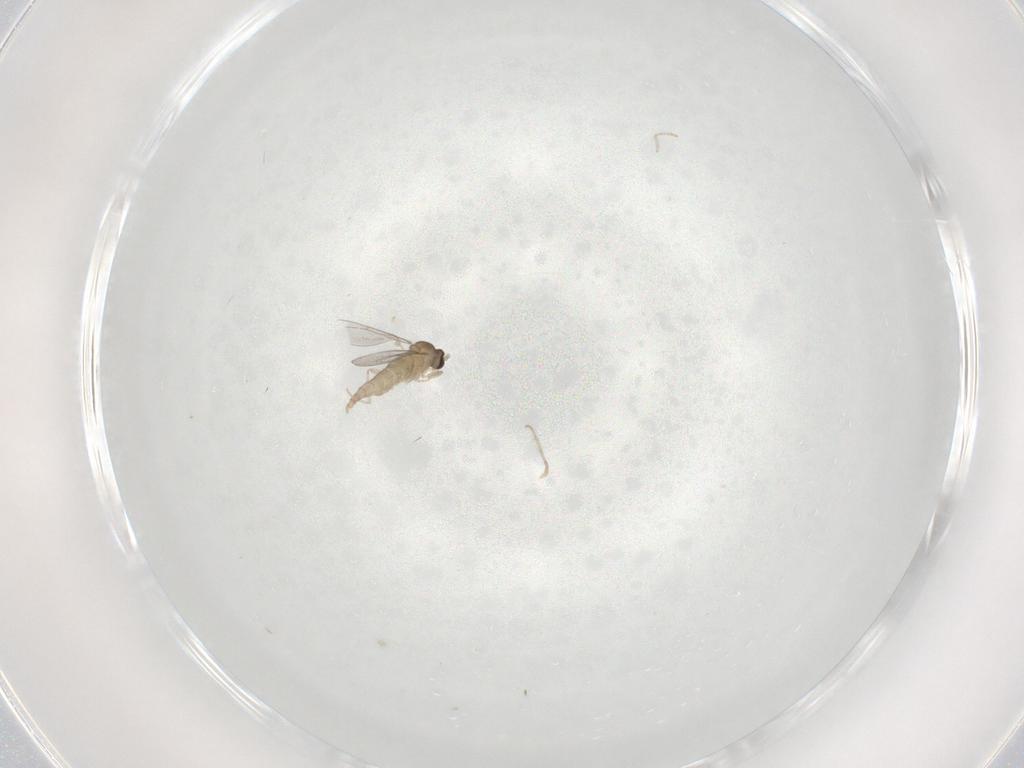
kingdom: Animalia
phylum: Arthropoda
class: Insecta
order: Diptera
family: Cecidomyiidae
